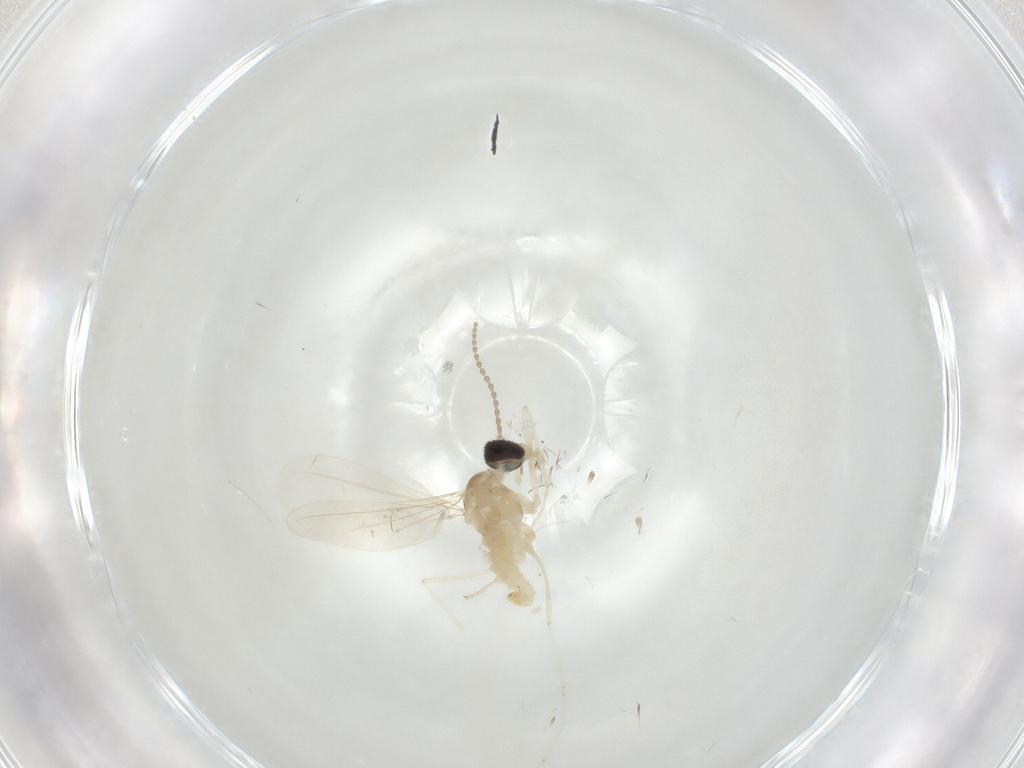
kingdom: Animalia
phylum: Arthropoda
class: Insecta
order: Diptera
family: Cecidomyiidae
